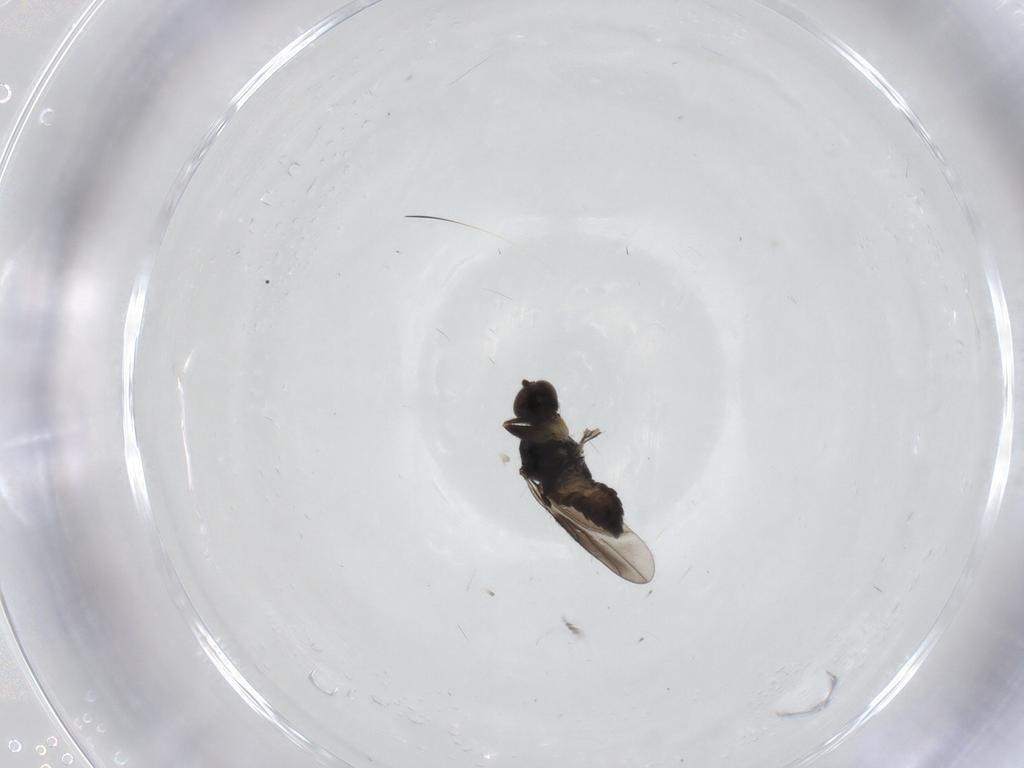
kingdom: Animalia
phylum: Arthropoda
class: Insecta
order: Diptera
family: Hybotidae
